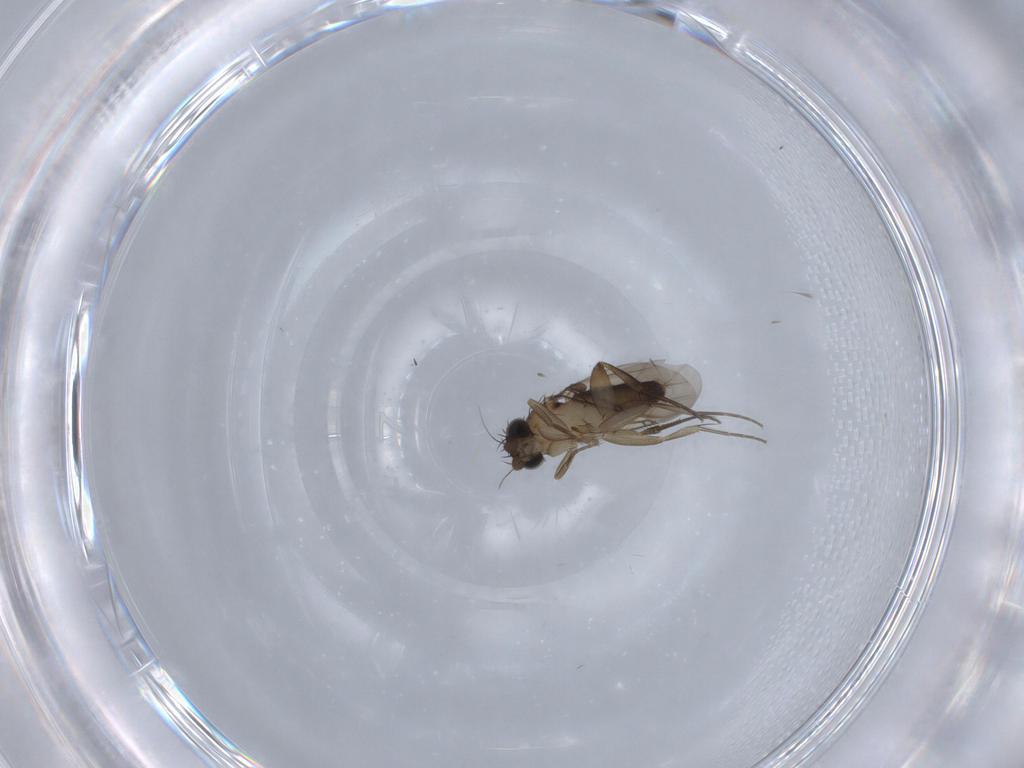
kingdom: Animalia
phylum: Arthropoda
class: Insecta
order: Diptera
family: Phoridae
